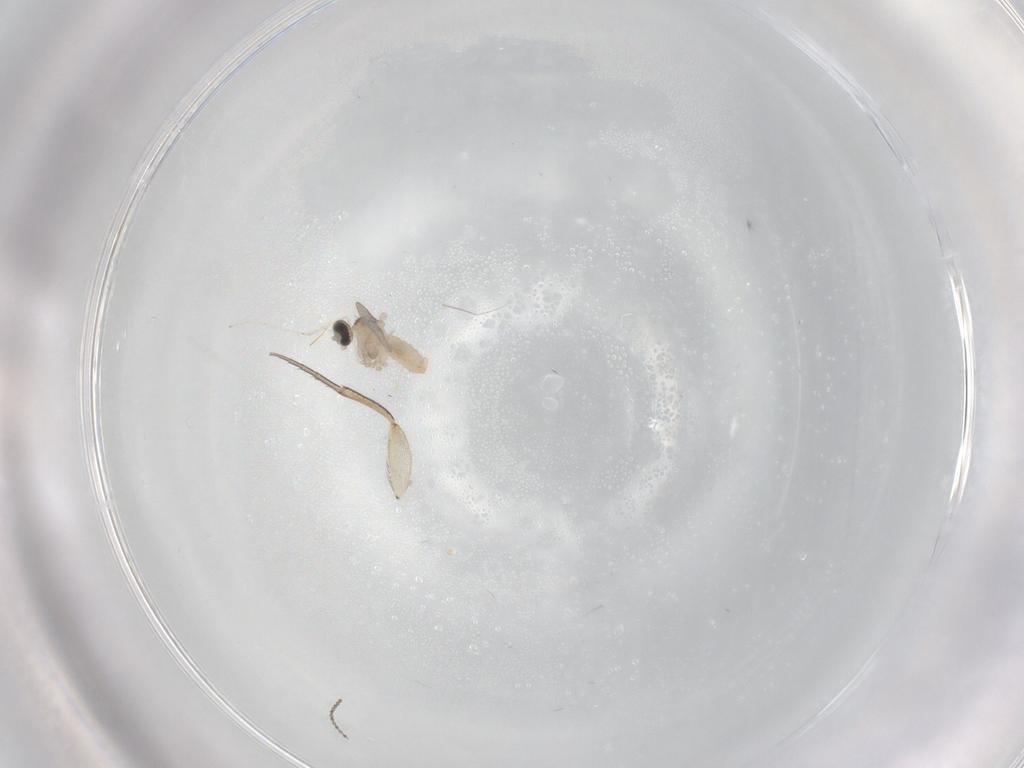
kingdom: Animalia
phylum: Arthropoda
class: Insecta
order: Diptera
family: Cecidomyiidae
